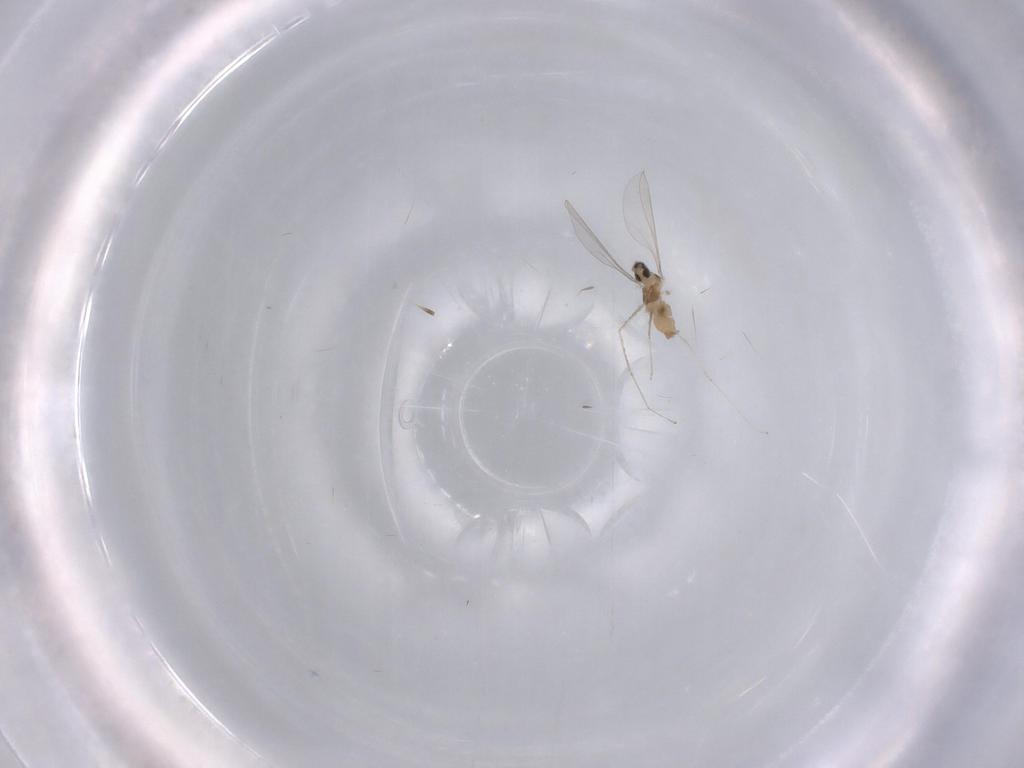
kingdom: Animalia
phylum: Arthropoda
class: Insecta
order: Diptera
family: Cecidomyiidae
